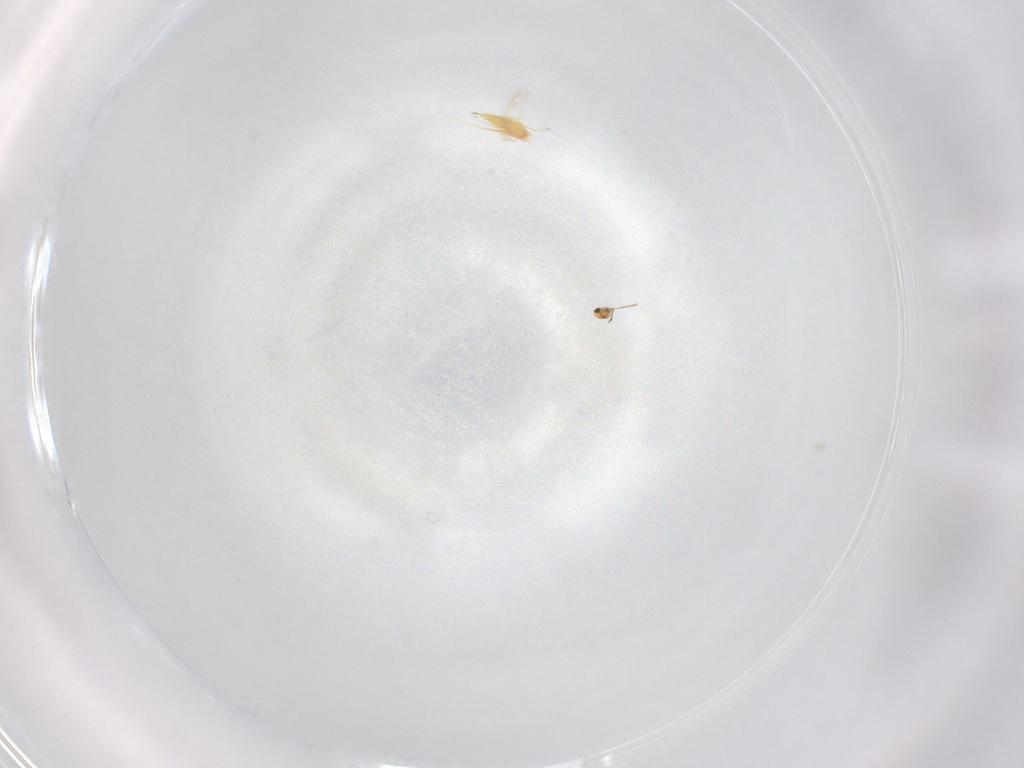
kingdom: Animalia
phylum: Arthropoda
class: Insecta
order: Hymenoptera
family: Mymaridae
